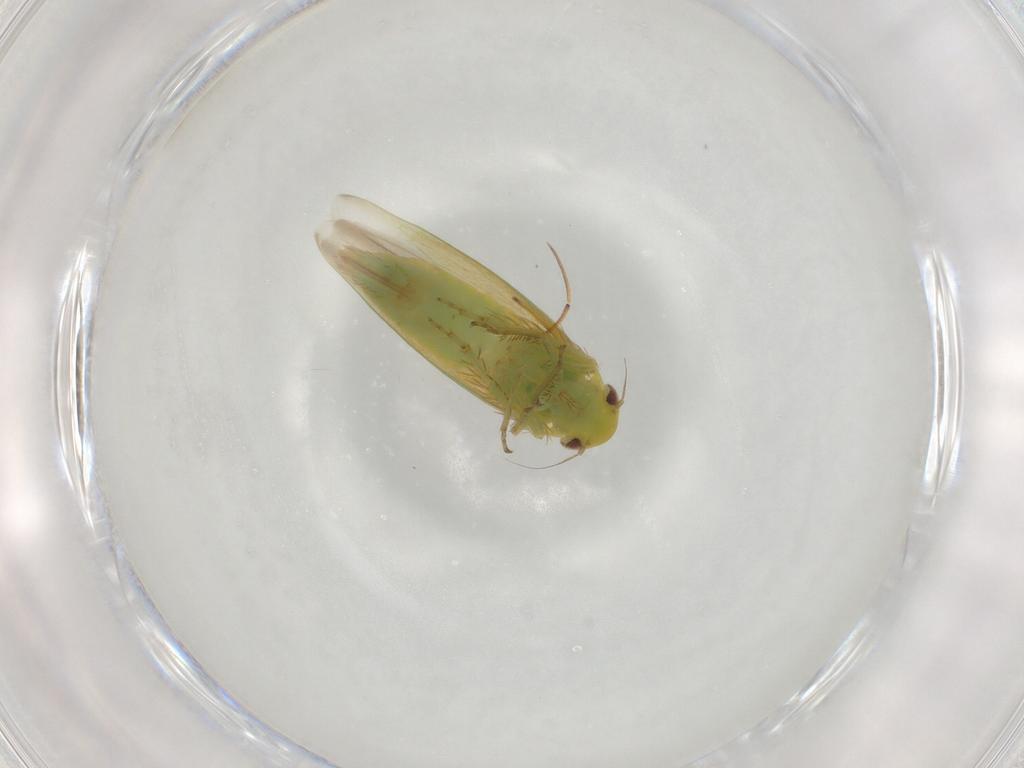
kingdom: Animalia
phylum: Arthropoda
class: Insecta
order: Hemiptera
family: Cicadellidae
